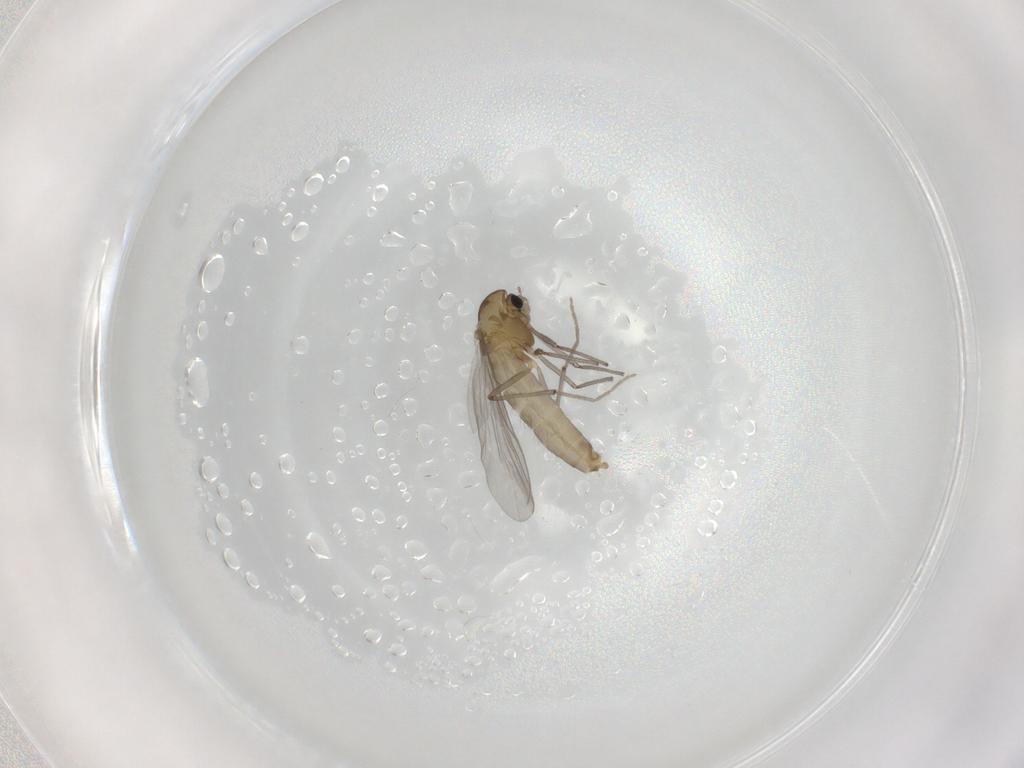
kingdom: Animalia
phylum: Arthropoda
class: Insecta
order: Diptera
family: Chironomidae
